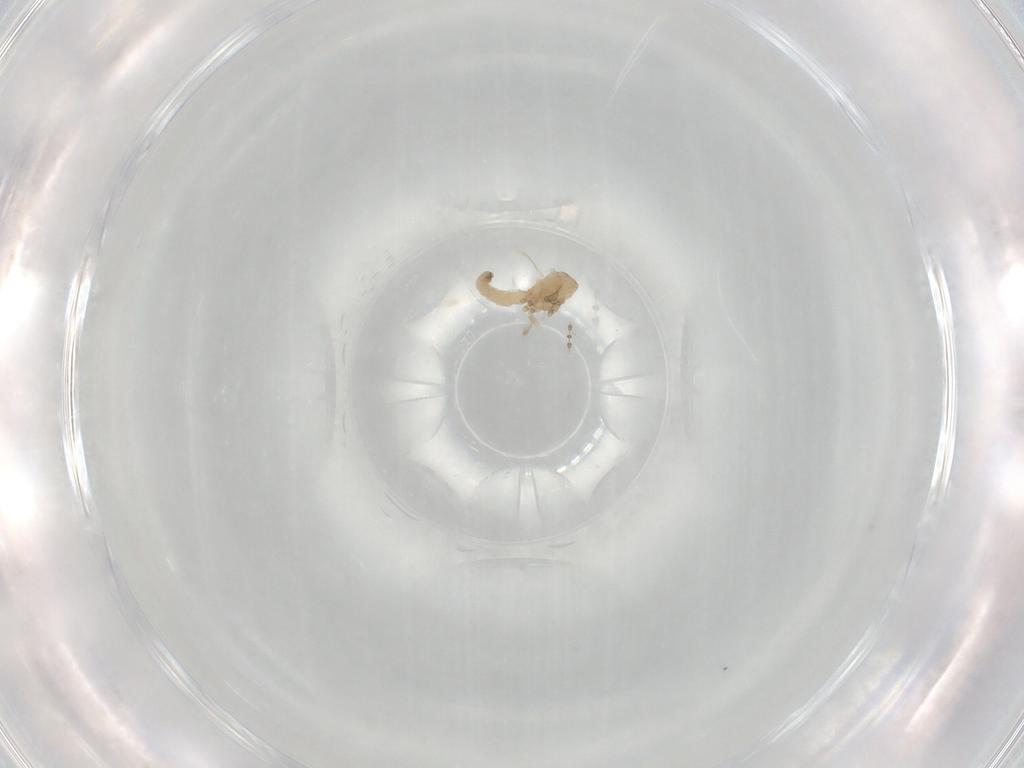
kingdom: Animalia
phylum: Arthropoda
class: Insecta
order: Diptera
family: Cecidomyiidae
